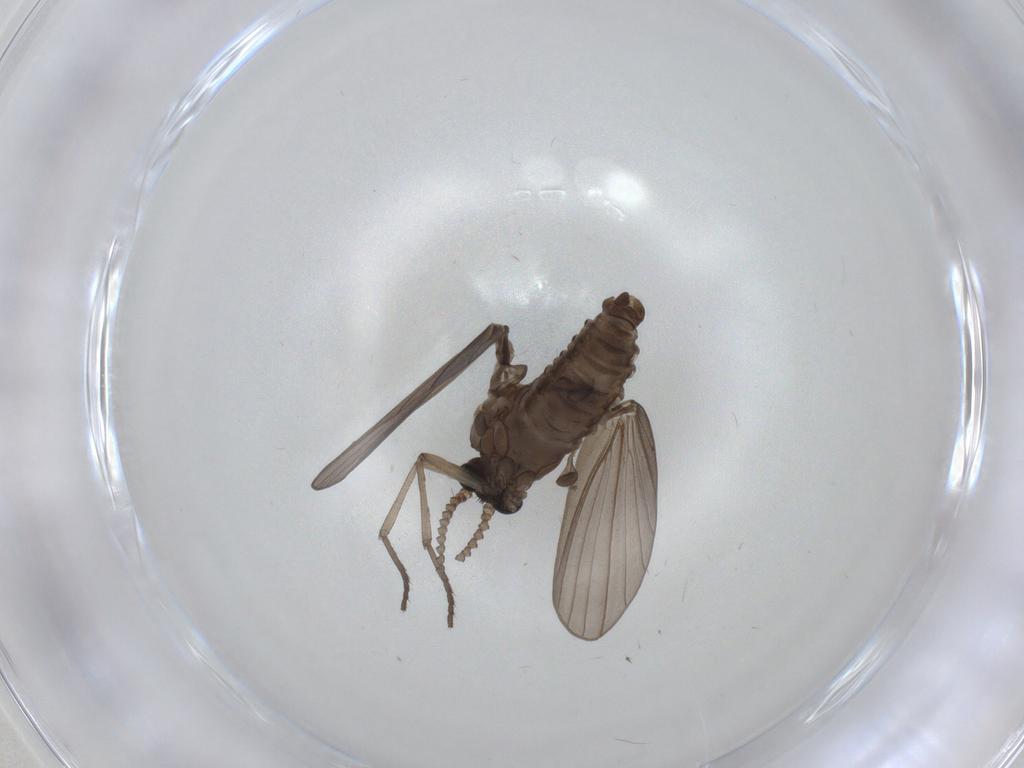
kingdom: Animalia
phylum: Arthropoda
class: Insecta
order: Diptera
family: Psychodidae
